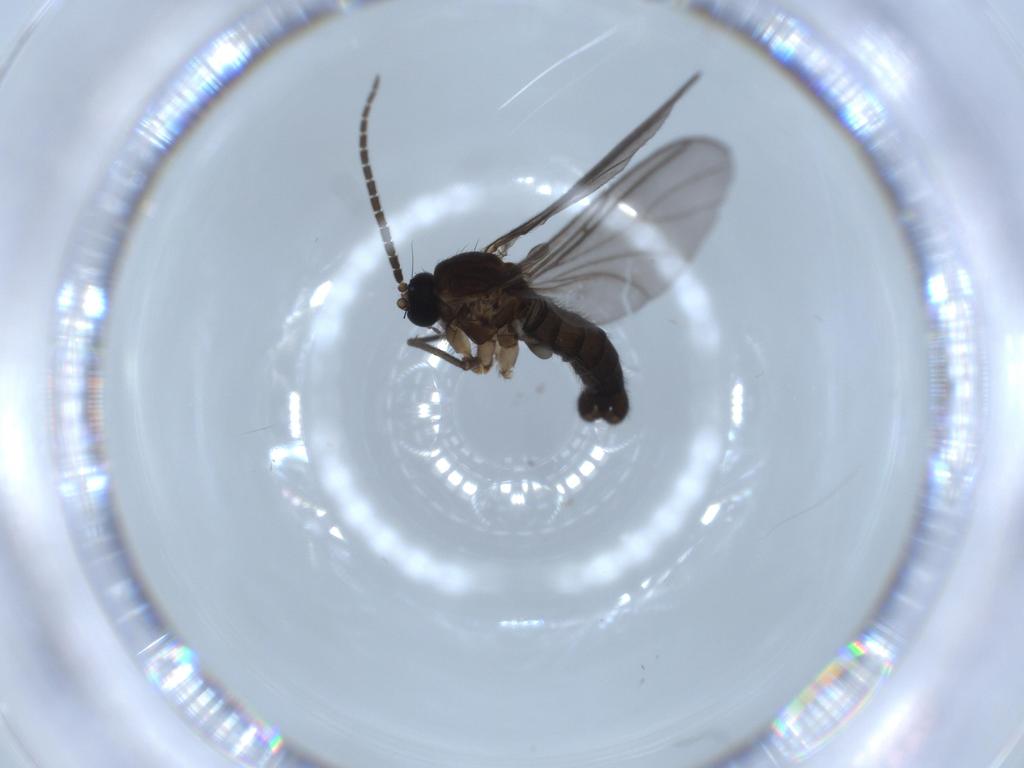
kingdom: Animalia
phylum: Arthropoda
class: Insecta
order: Diptera
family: Sciaridae
